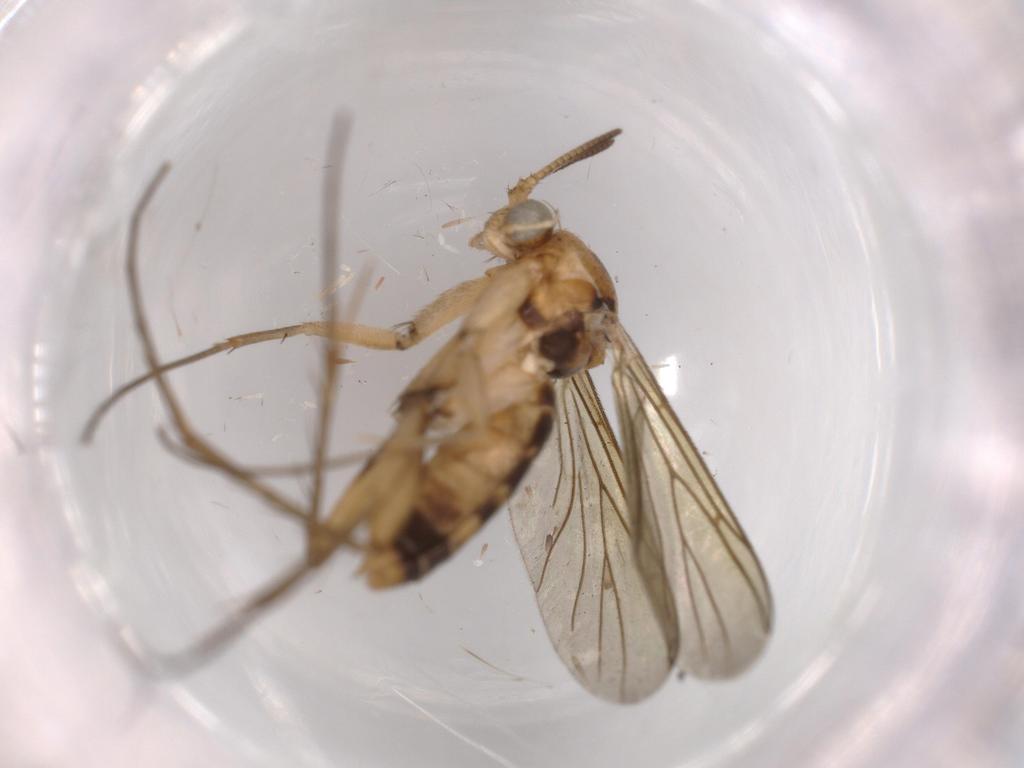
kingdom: Animalia
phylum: Arthropoda
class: Insecta
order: Diptera
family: Mycetophilidae
